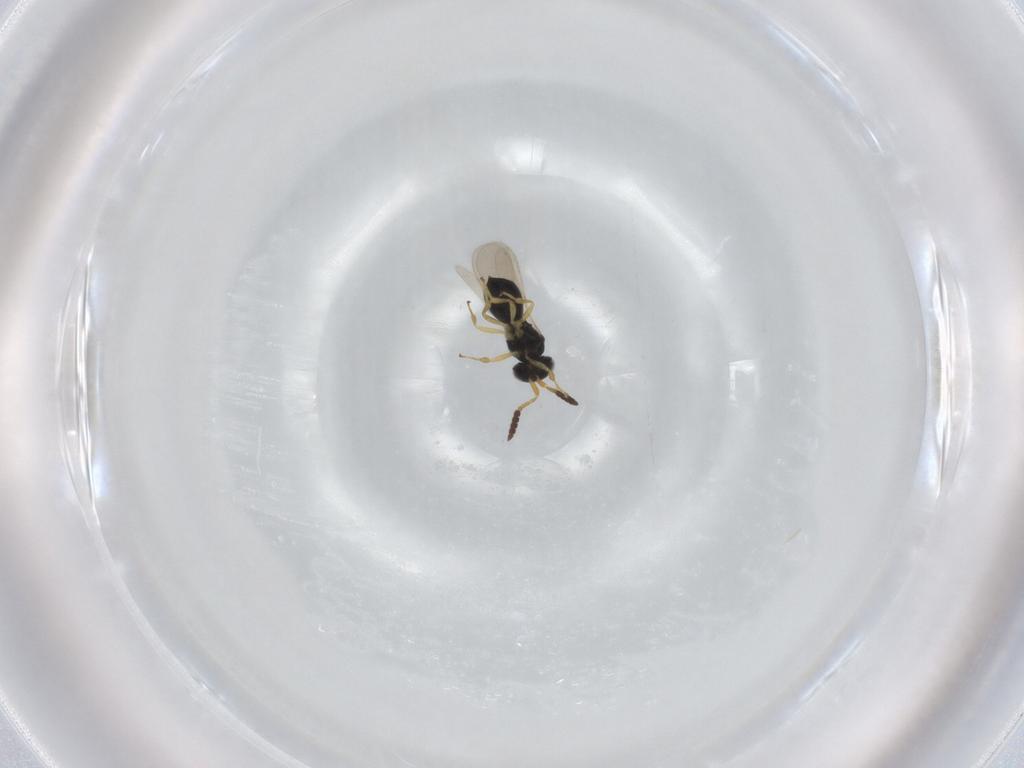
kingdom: Animalia
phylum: Arthropoda
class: Insecta
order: Hymenoptera
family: Scelionidae
